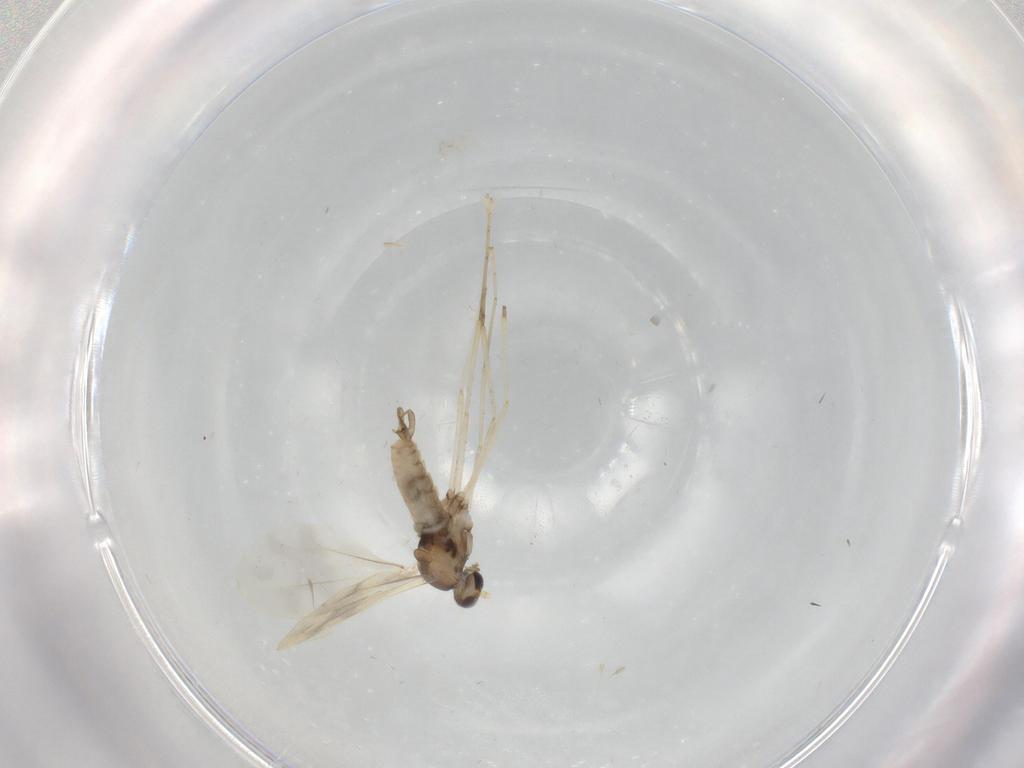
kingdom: Animalia
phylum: Arthropoda
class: Insecta
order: Diptera
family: Cecidomyiidae
